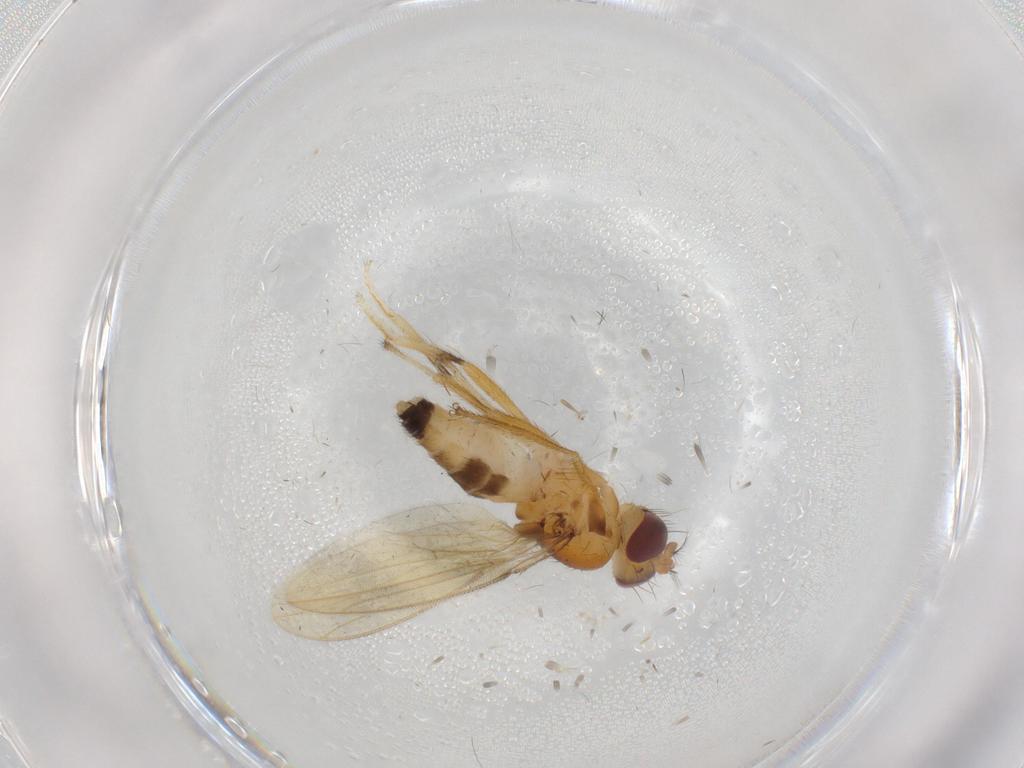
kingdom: Animalia
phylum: Arthropoda
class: Insecta
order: Diptera
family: Periscelididae
